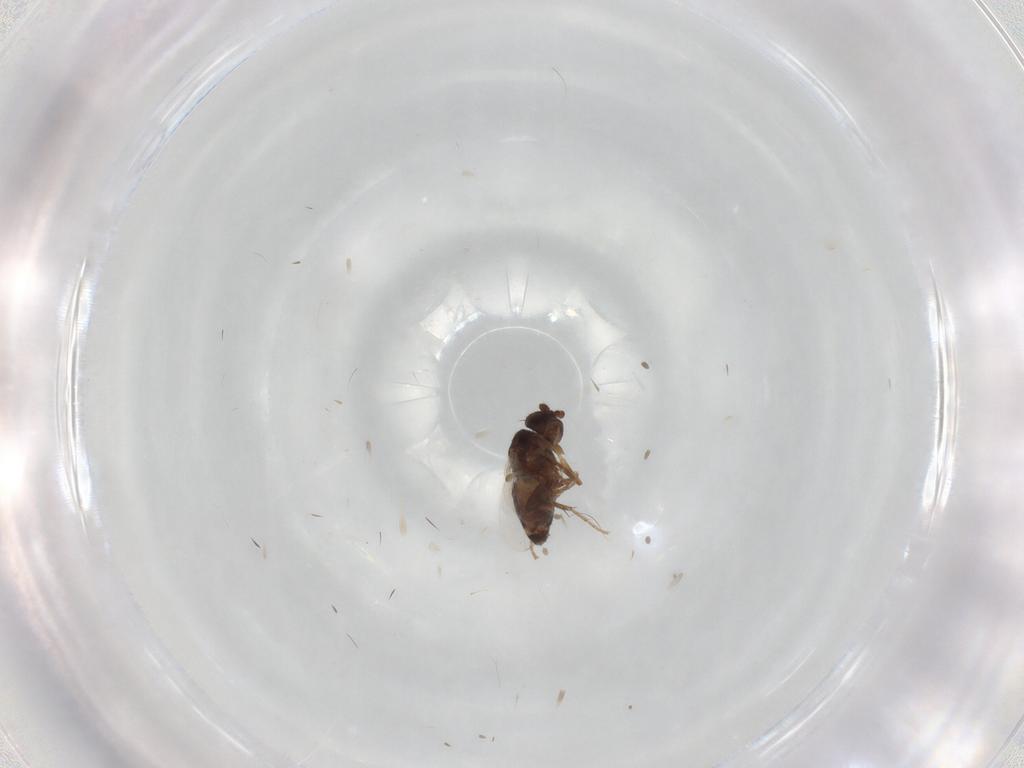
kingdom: Animalia
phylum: Arthropoda
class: Insecta
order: Diptera
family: Sphaeroceridae
